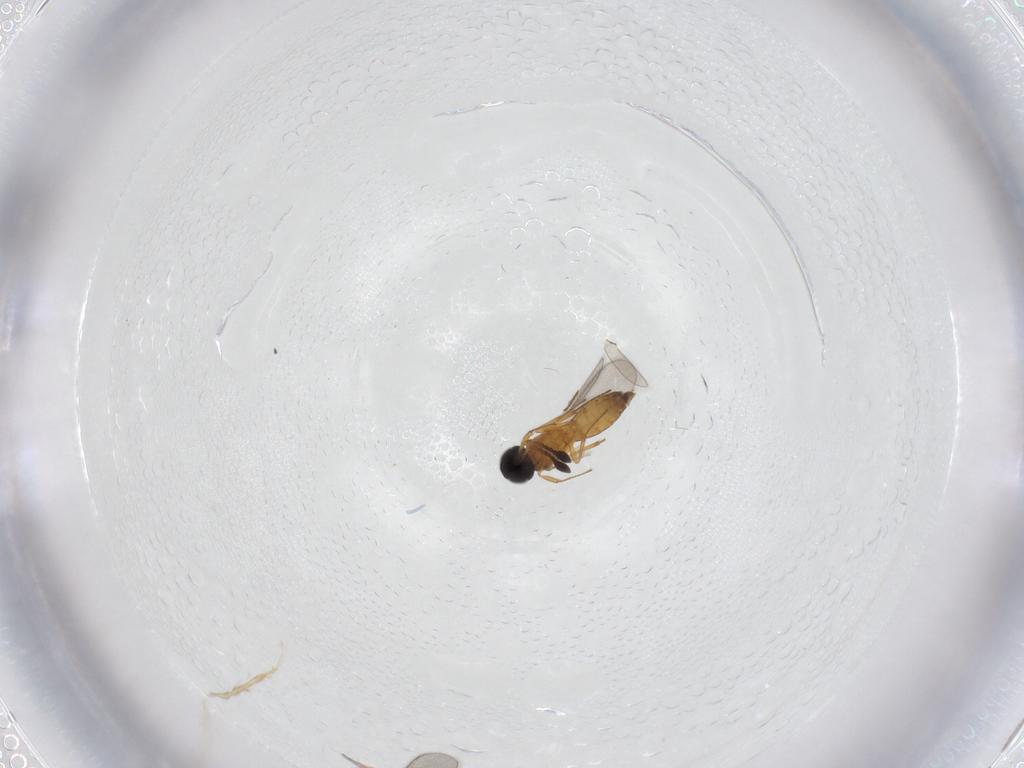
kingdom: Animalia
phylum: Arthropoda
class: Insecta
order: Hymenoptera
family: Scelionidae
